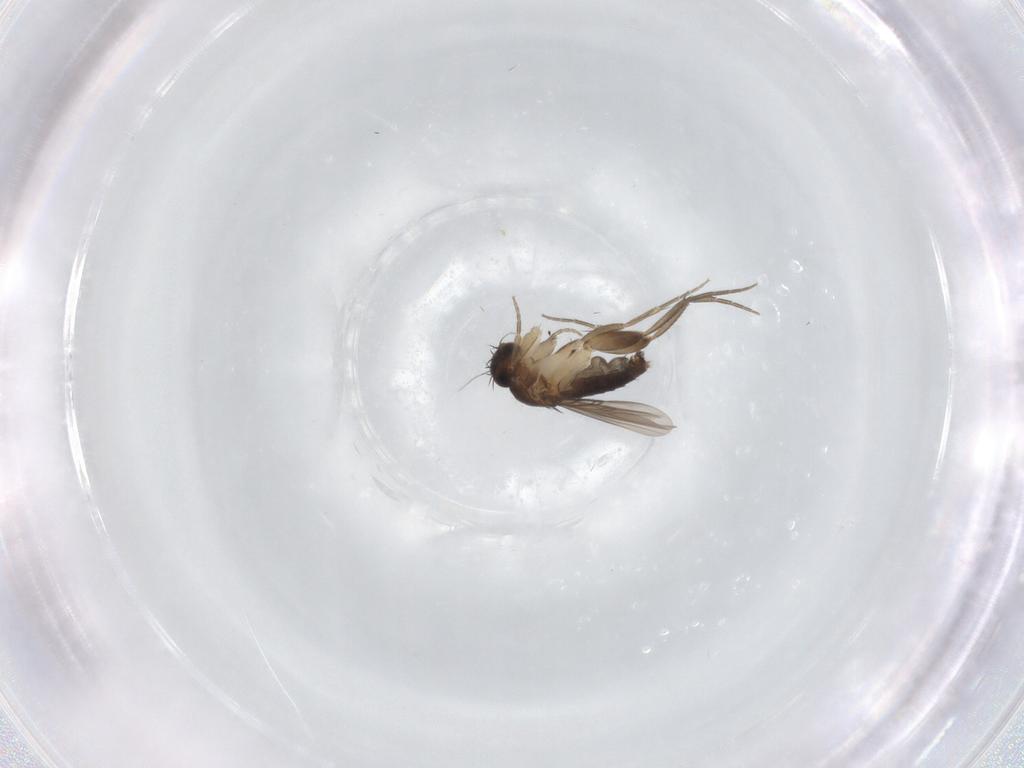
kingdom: Animalia
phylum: Arthropoda
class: Insecta
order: Diptera
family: Phoridae
